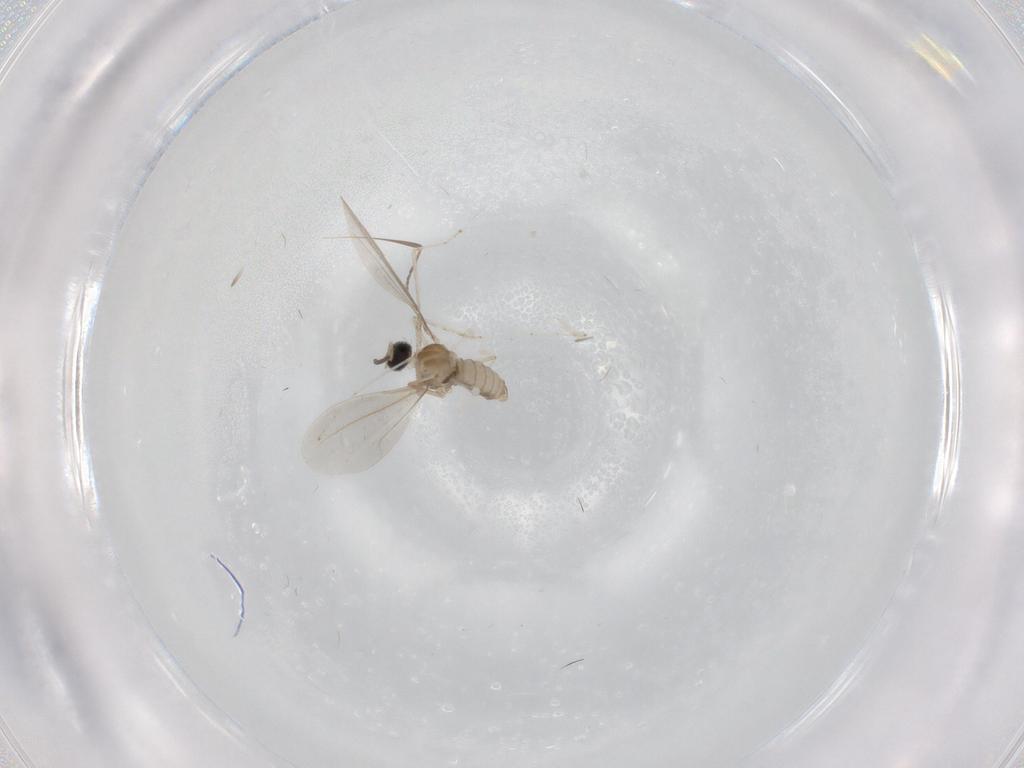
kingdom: Animalia
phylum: Arthropoda
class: Insecta
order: Diptera
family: Cecidomyiidae
